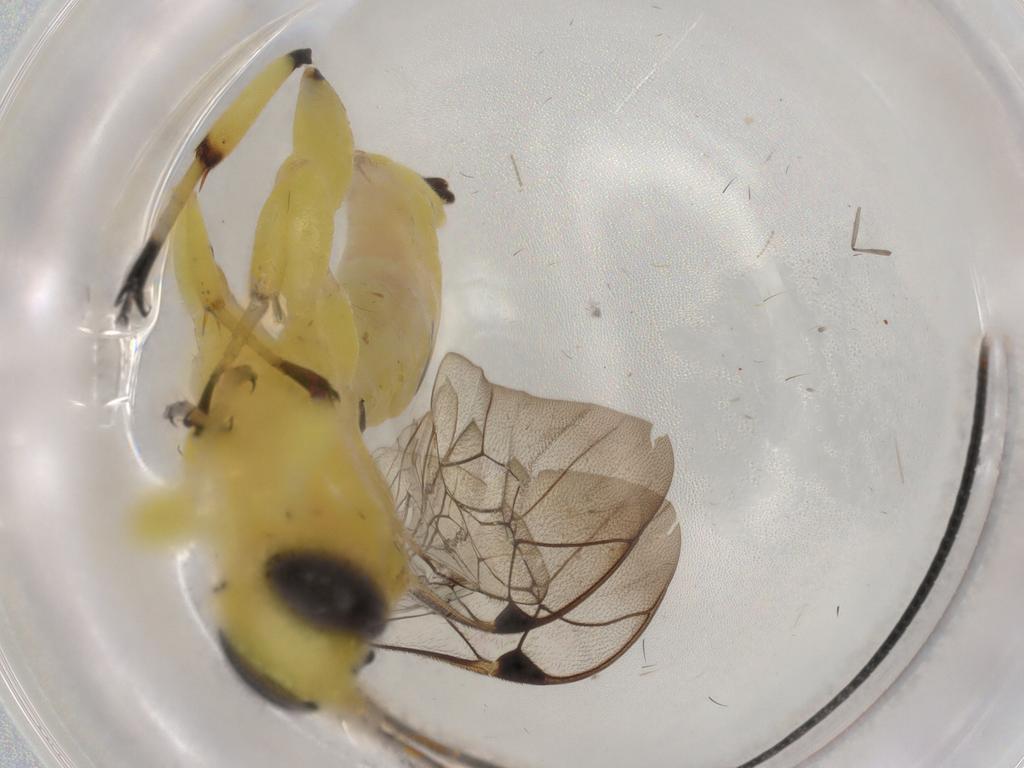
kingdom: Animalia
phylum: Arthropoda
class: Insecta
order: Hymenoptera
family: Ichneumonidae
